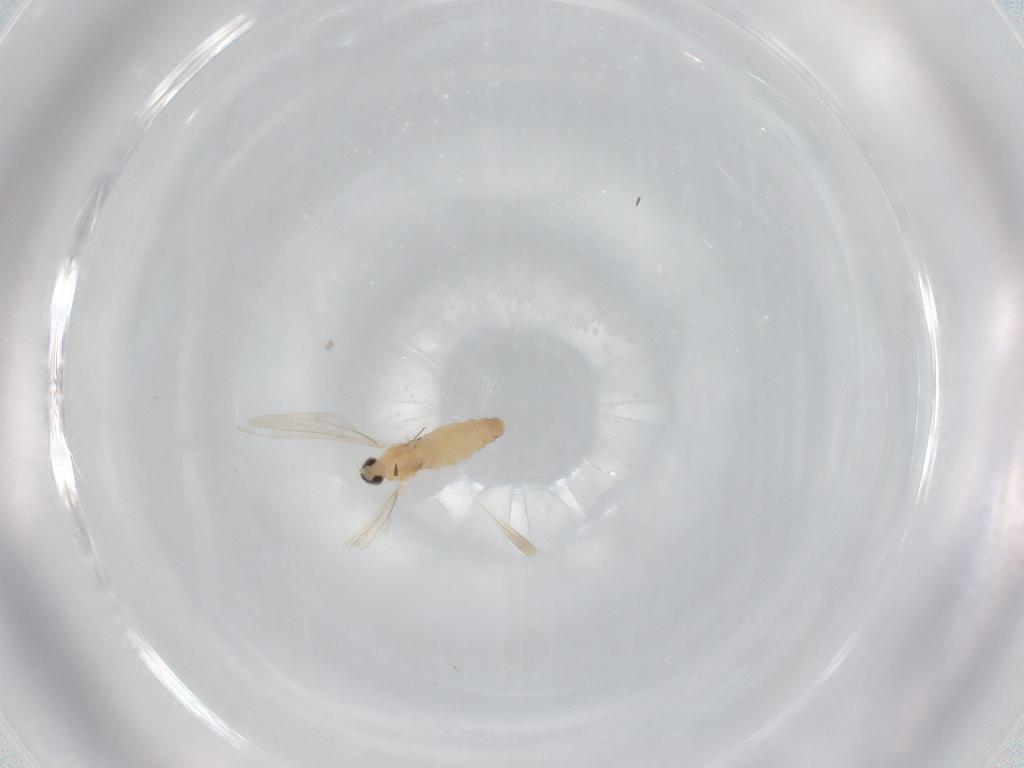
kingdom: Animalia
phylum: Arthropoda
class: Insecta
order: Diptera
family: Cecidomyiidae
